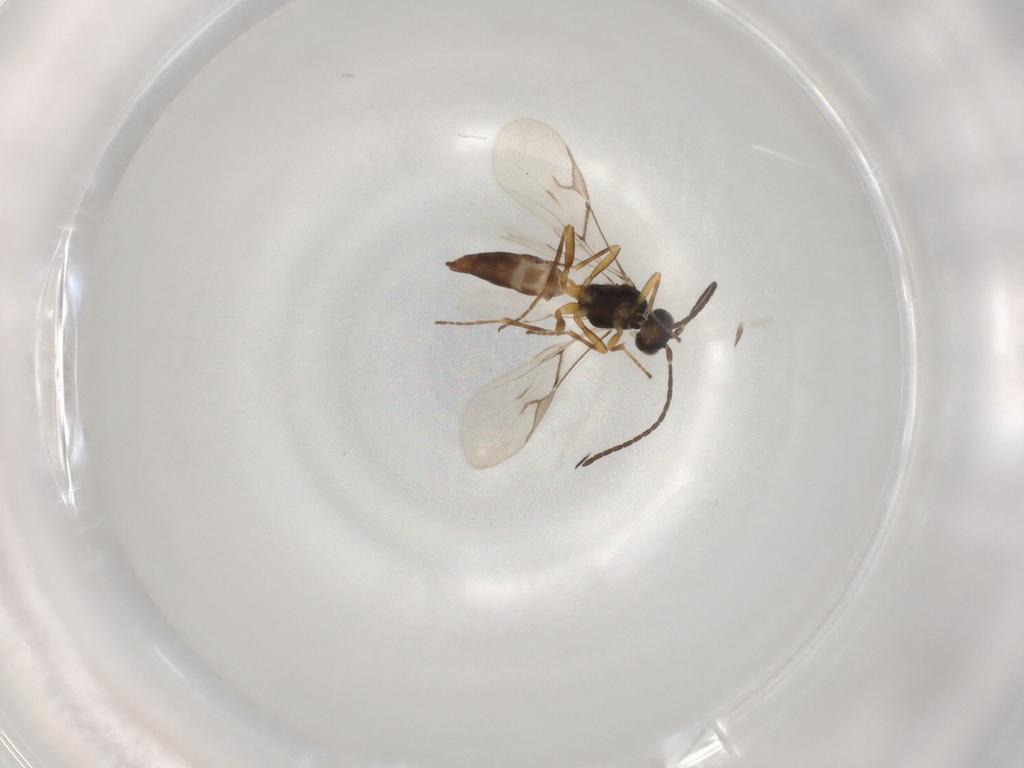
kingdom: Animalia
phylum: Arthropoda
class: Insecta
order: Hymenoptera
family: Braconidae
